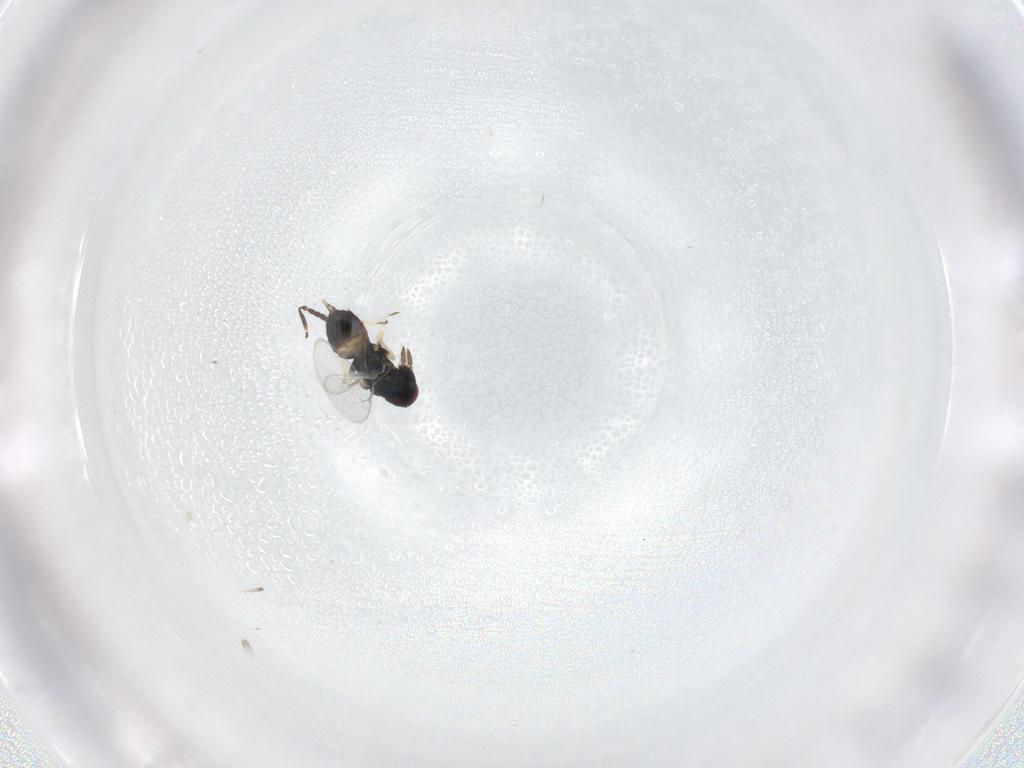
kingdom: Animalia
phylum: Arthropoda
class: Insecta
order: Hymenoptera
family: Eulophidae
